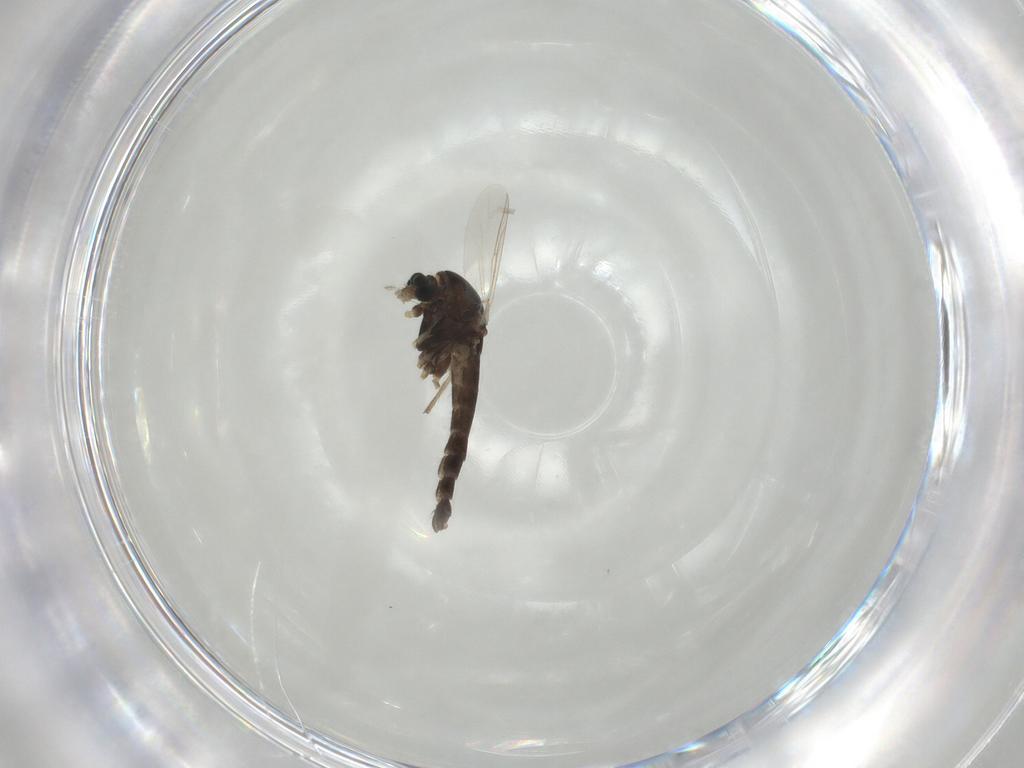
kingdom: Animalia
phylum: Arthropoda
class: Insecta
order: Diptera
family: Chironomidae
